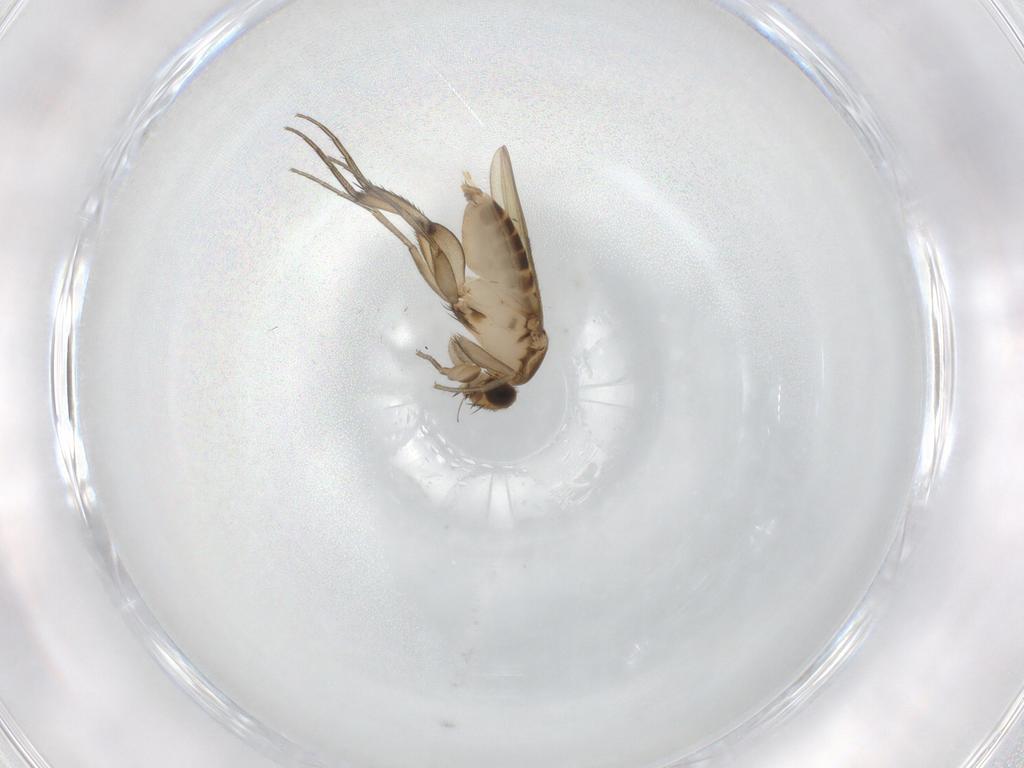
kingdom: Animalia
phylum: Arthropoda
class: Insecta
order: Diptera
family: Phoridae
